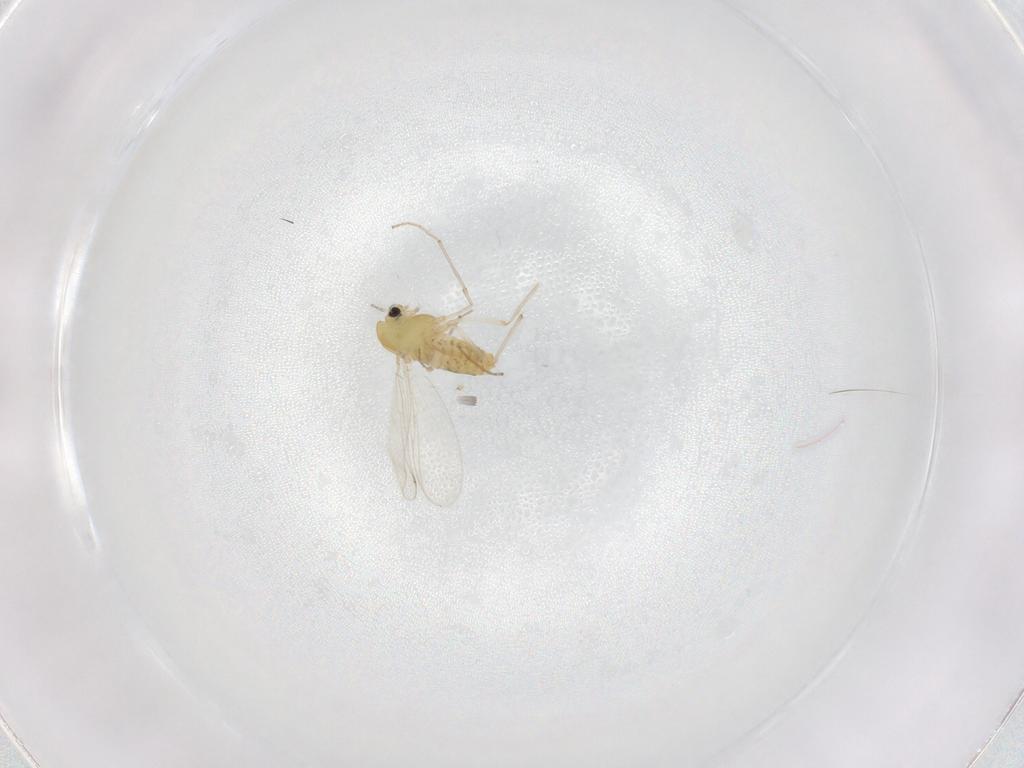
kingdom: Animalia
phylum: Arthropoda
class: Insecta
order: Diptera
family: Chironomidae
